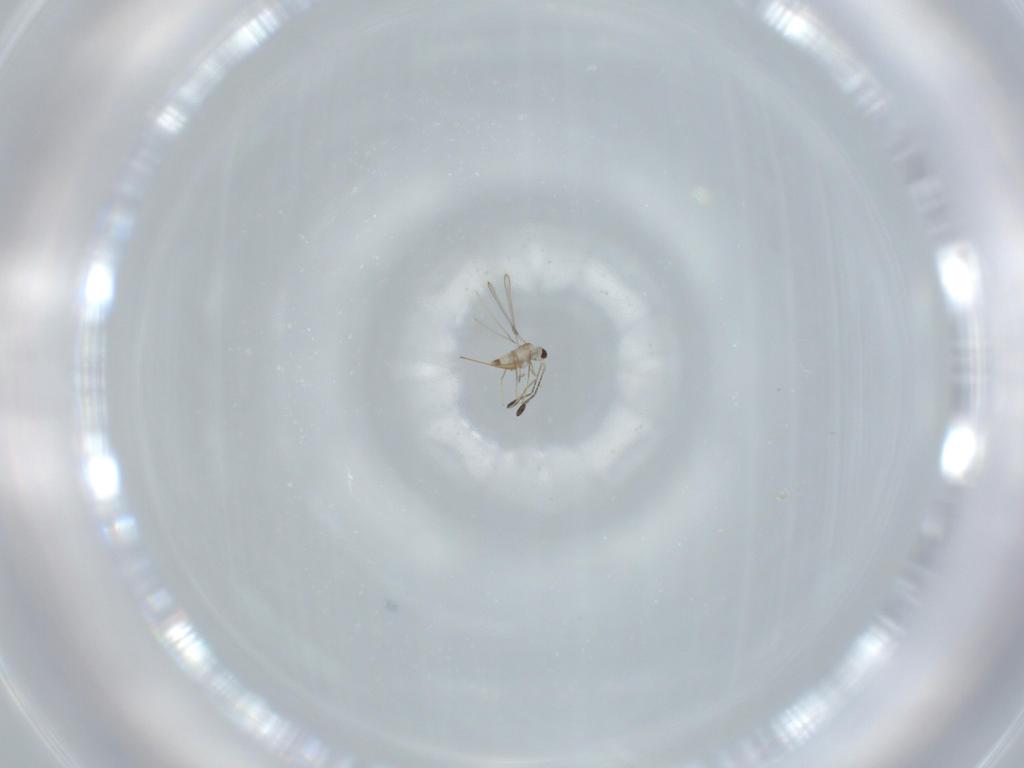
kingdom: Animalia
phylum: Arthropoda
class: Insecta
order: Hymenoptera
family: Mymaridae
